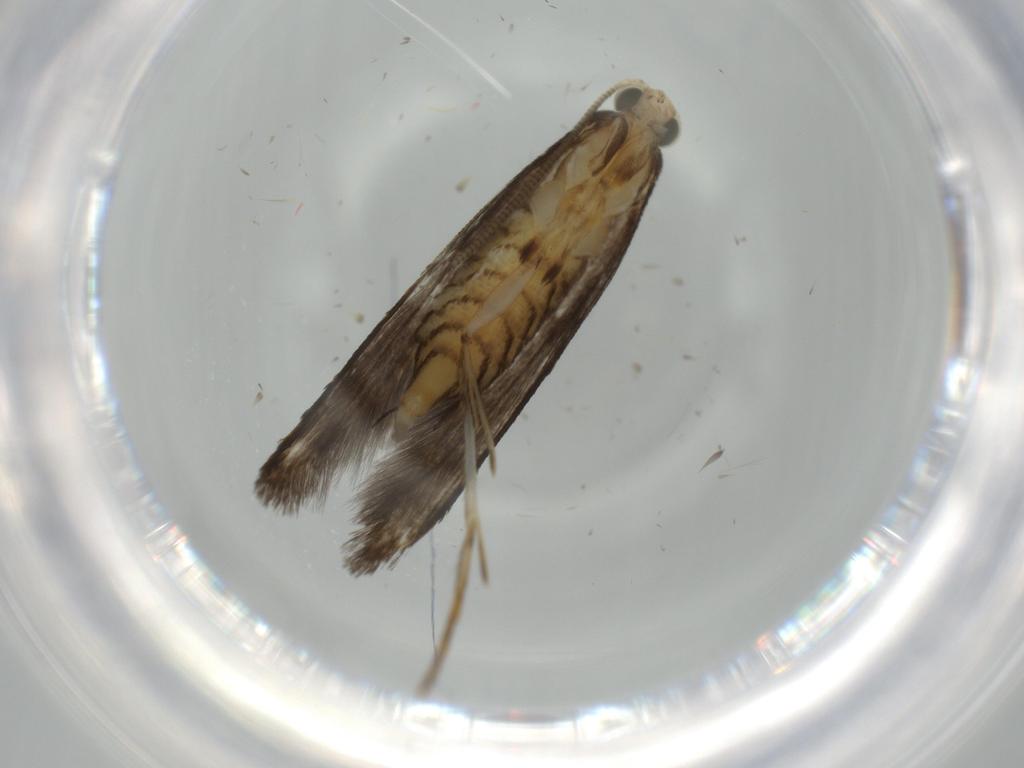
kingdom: Animalia
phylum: Arthropoda
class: Insecta
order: Lepidoptera
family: Tineidae
